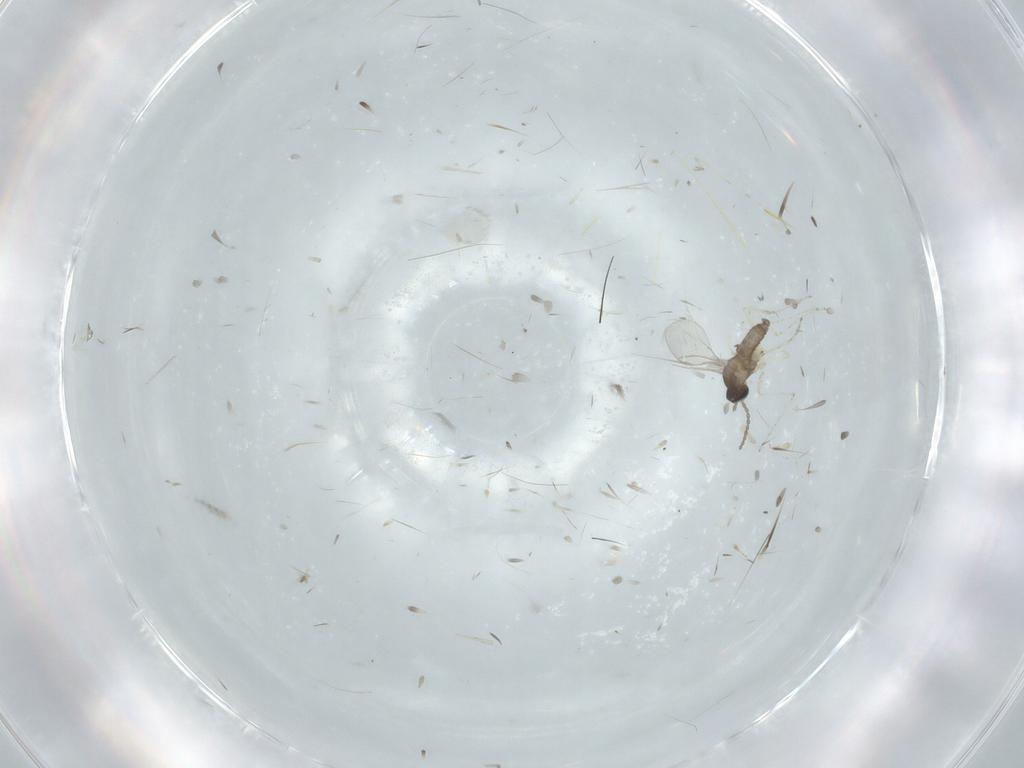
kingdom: Animalia
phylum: Arthropoda
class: Insecta
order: Diptera
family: Cecidomyiidae
